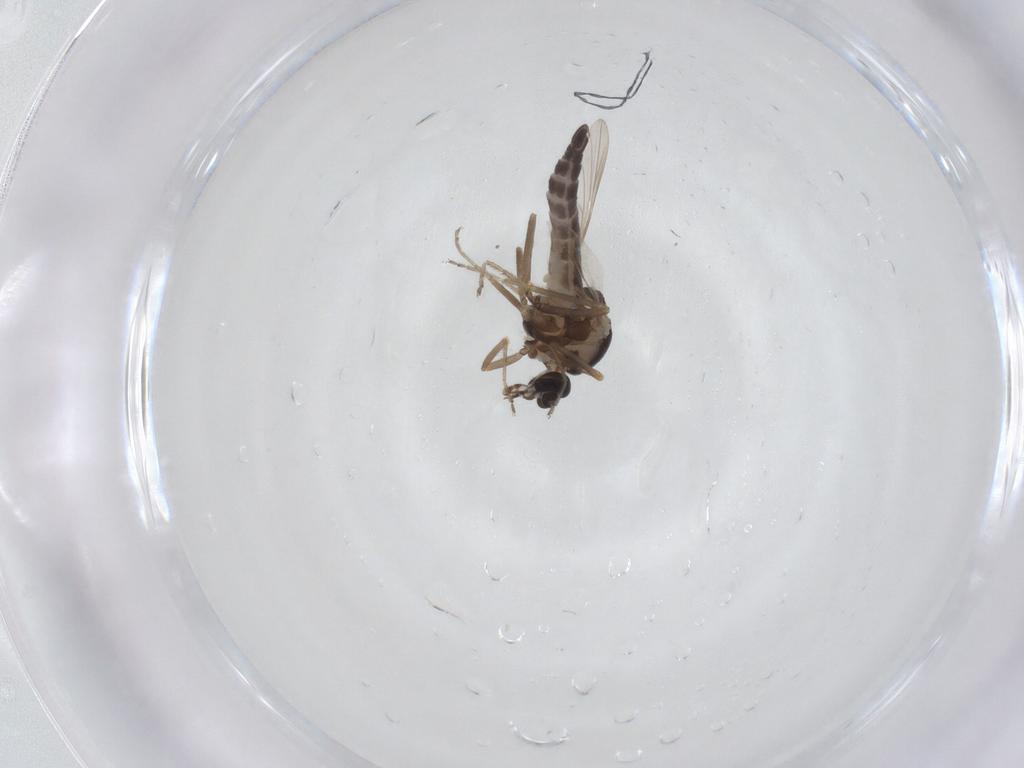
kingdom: Animalia
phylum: Arthropoda
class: Insecta
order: Diptera
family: Ceratopogonidae
